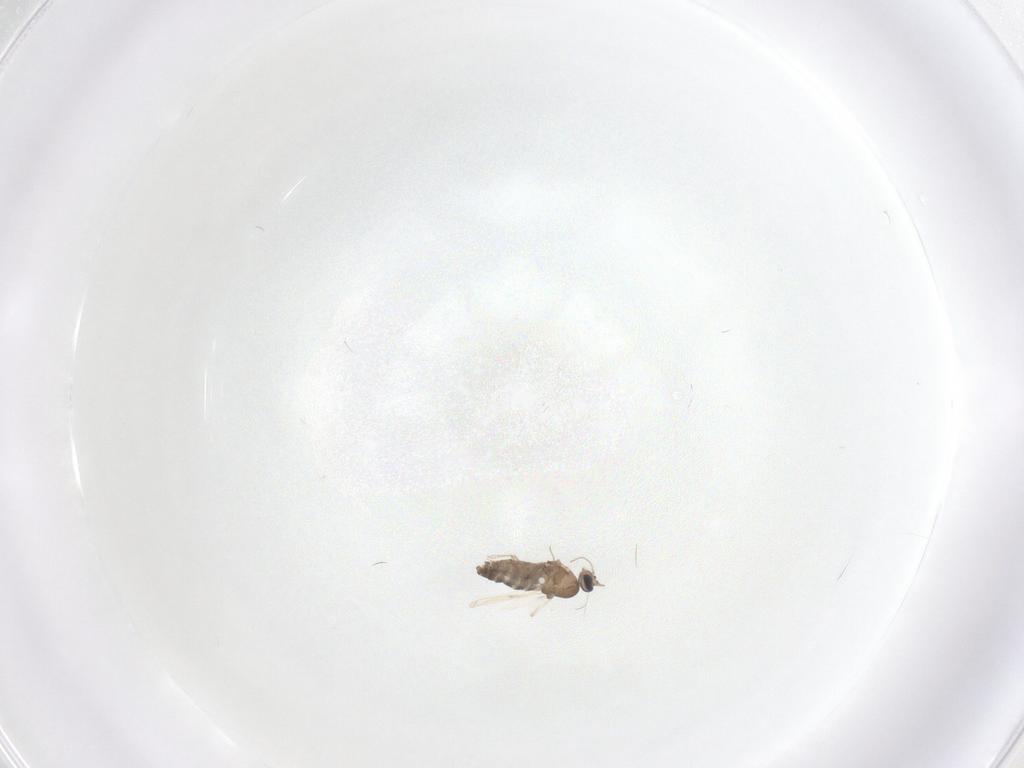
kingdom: Animalia
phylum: Arthropoda
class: Insecta
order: Diptera
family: Ceratopogonidae
